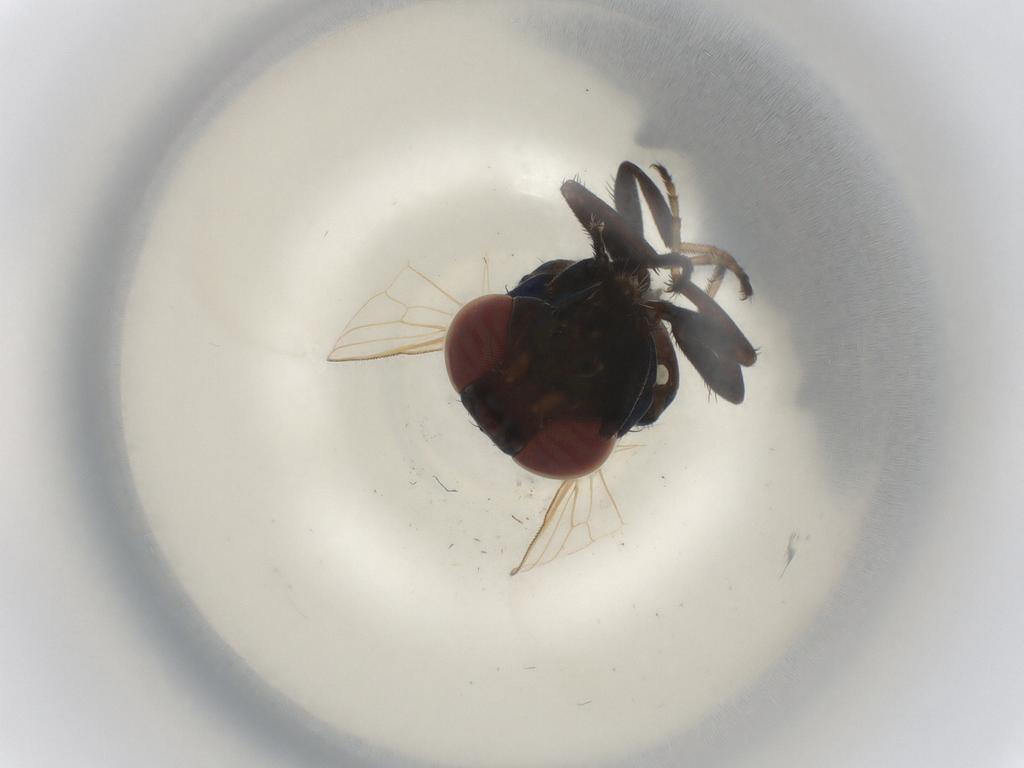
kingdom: Animalia
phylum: Arthropoda
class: Insecta
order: Diptera
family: Ulidiidae
